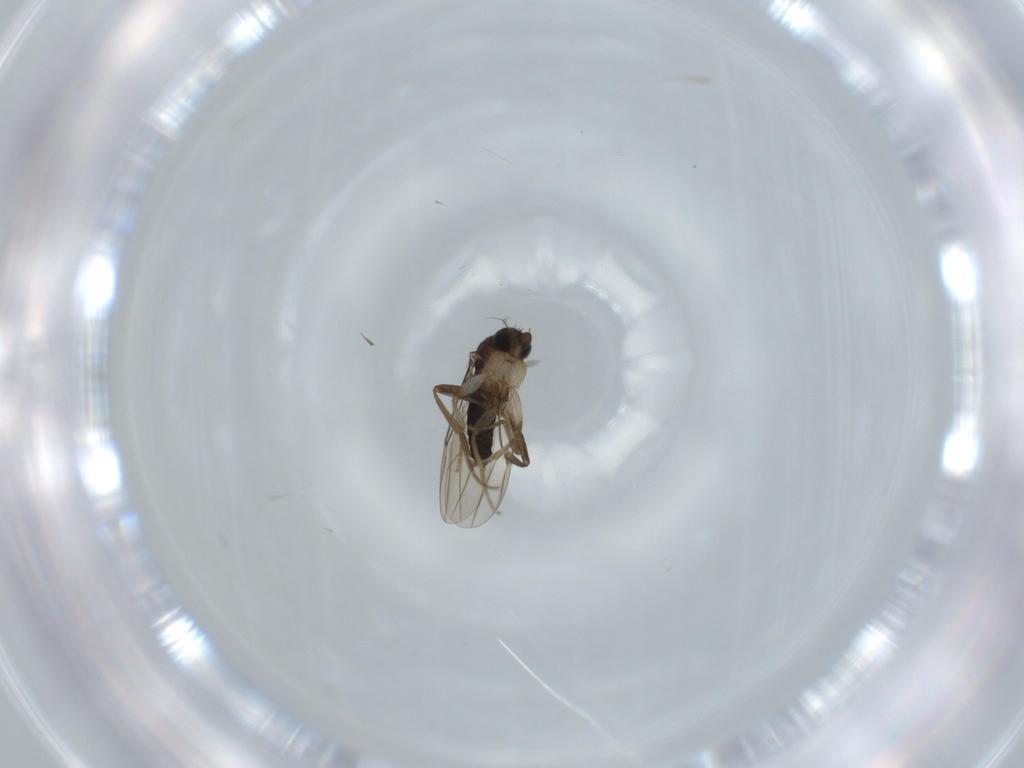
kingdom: Animalia
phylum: Arthropoda
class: Insecta
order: Diptera
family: Phoridae
